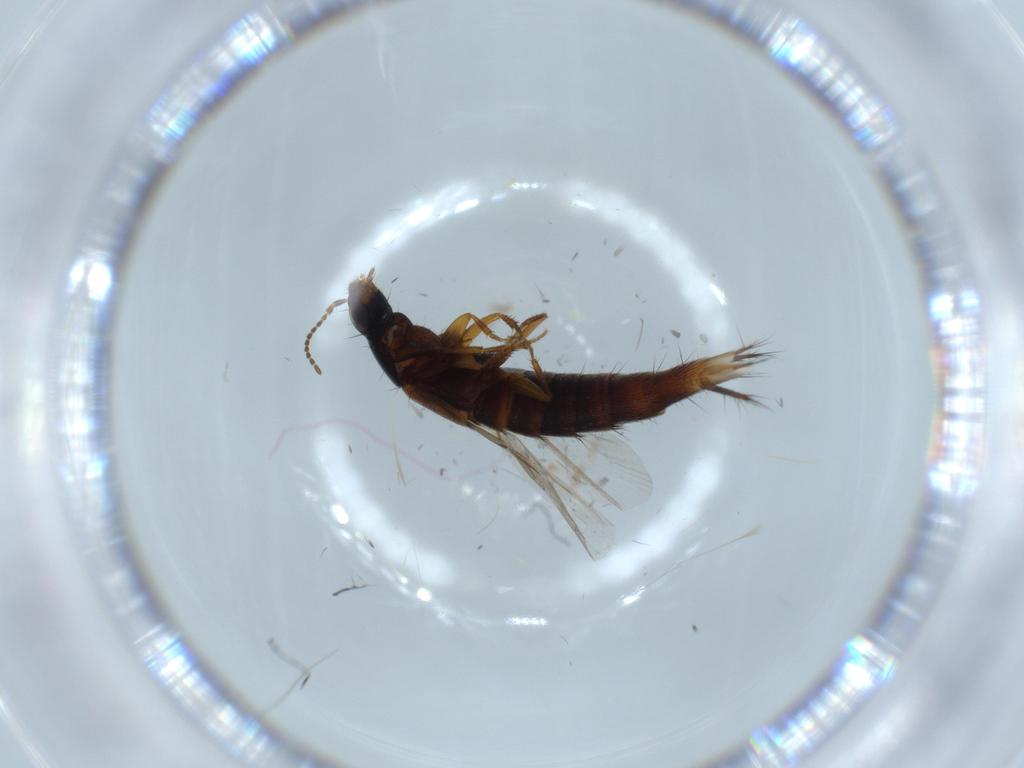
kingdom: Animalia
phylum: Arthropoda
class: Insecta
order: Coleoptera
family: Staphylinidae
